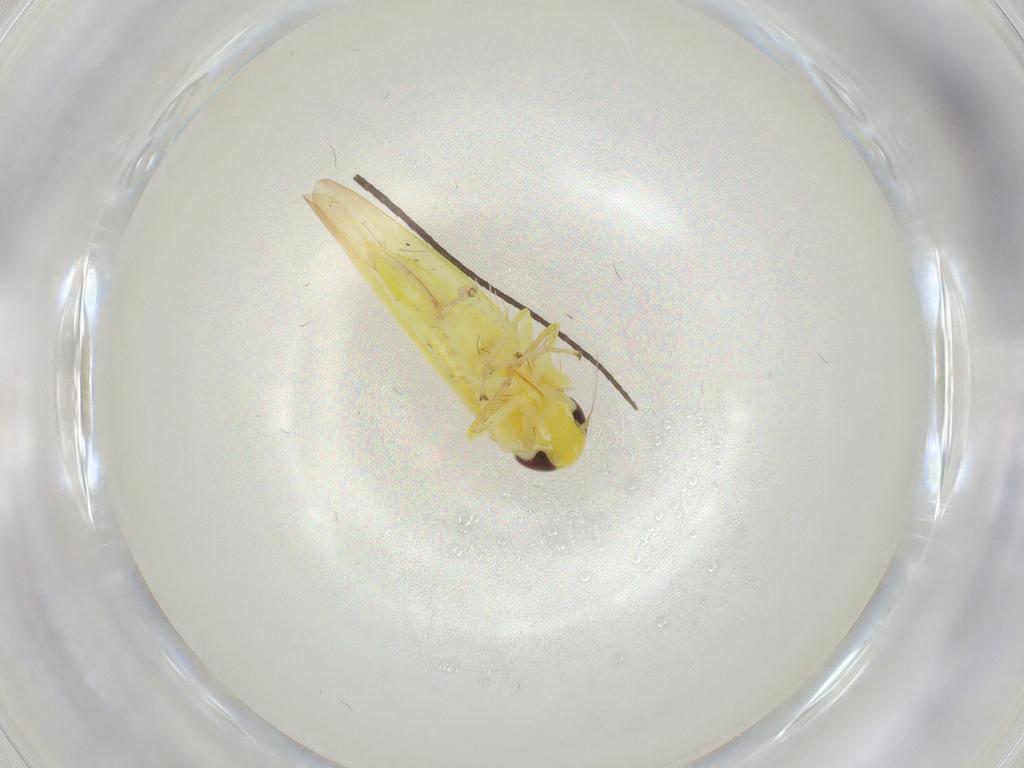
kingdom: Animalia
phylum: Arthropoda
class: Insecta
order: Hemiptera
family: Cicadellidae
